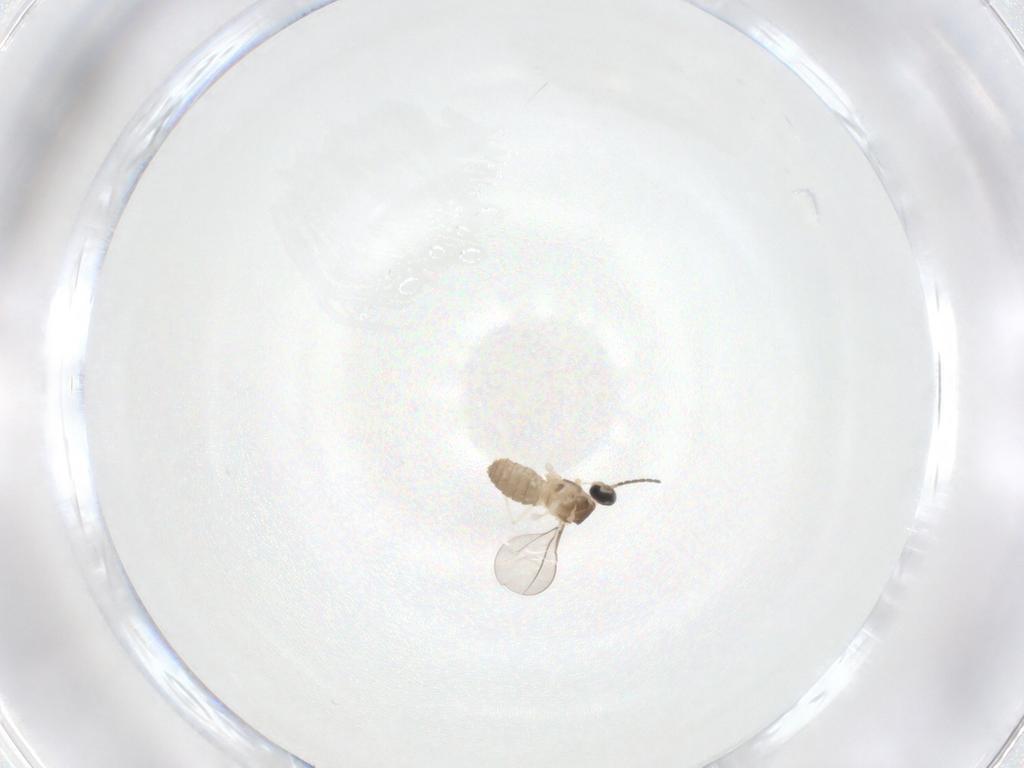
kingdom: Animalia
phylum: Arthropoda
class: Insecta
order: Diptera
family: Cecidomyiidae
